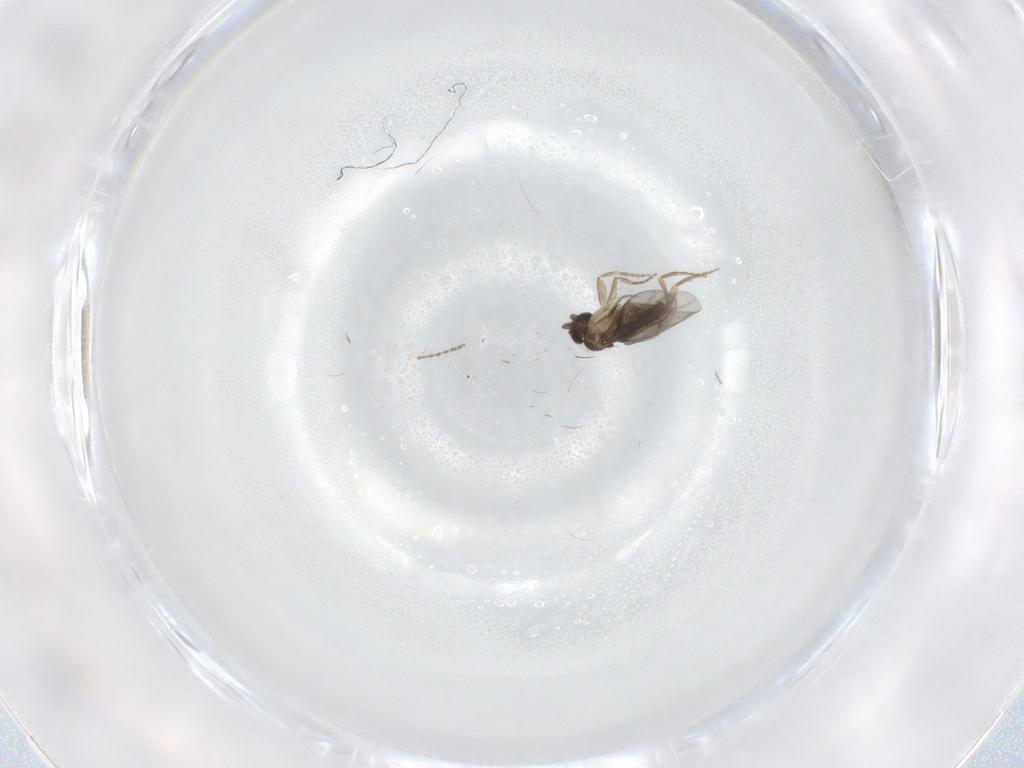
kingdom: Animalia
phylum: Arthropoda
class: Insecta
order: Diptera
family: Ceratopogonidae
